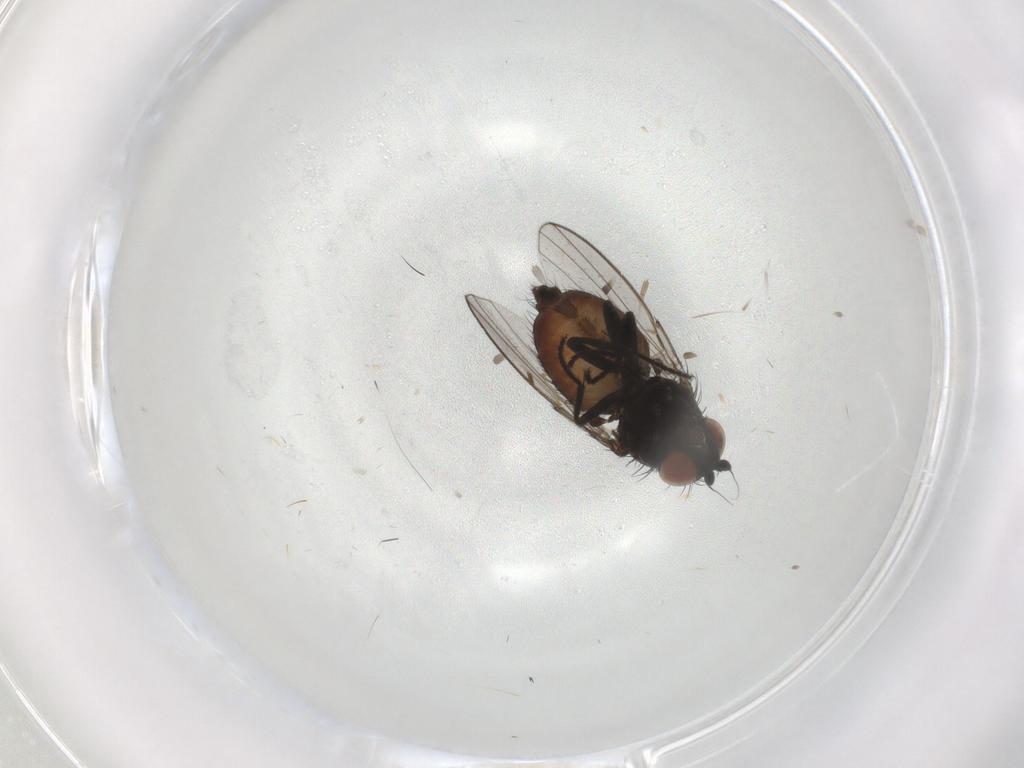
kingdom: Animalia
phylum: Arthropoda
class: Insecta
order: Diptera
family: Milichiidae
